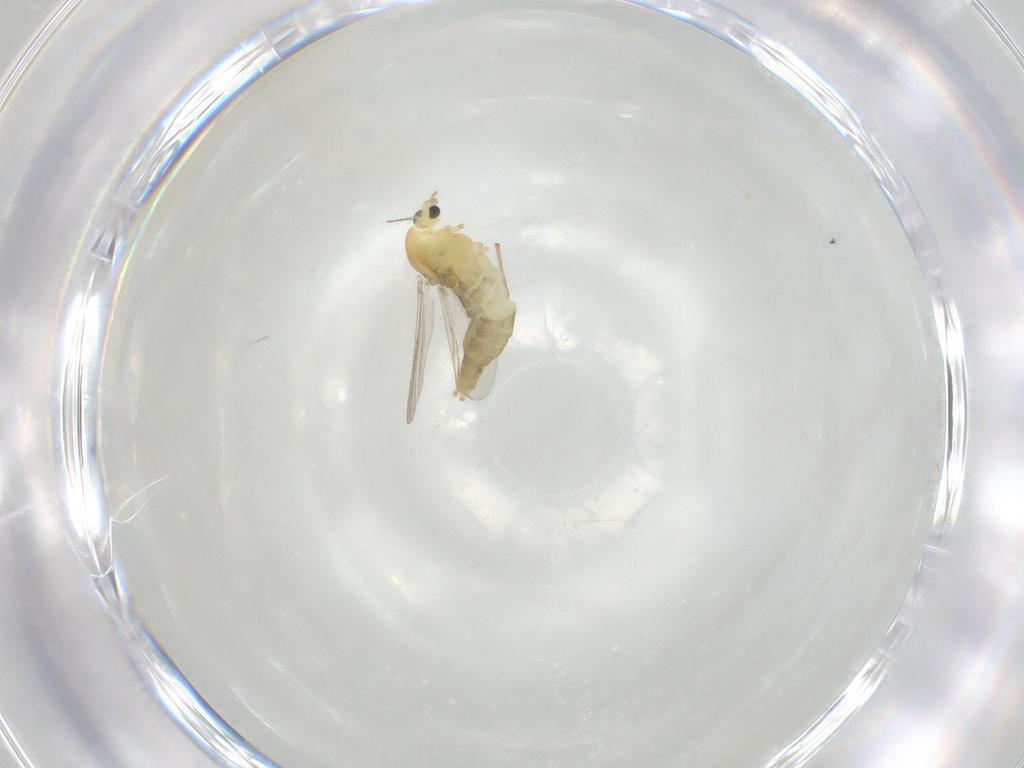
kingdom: Animalia
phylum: Arthropoda
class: Insecta
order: Diptera
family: Chironomidae
